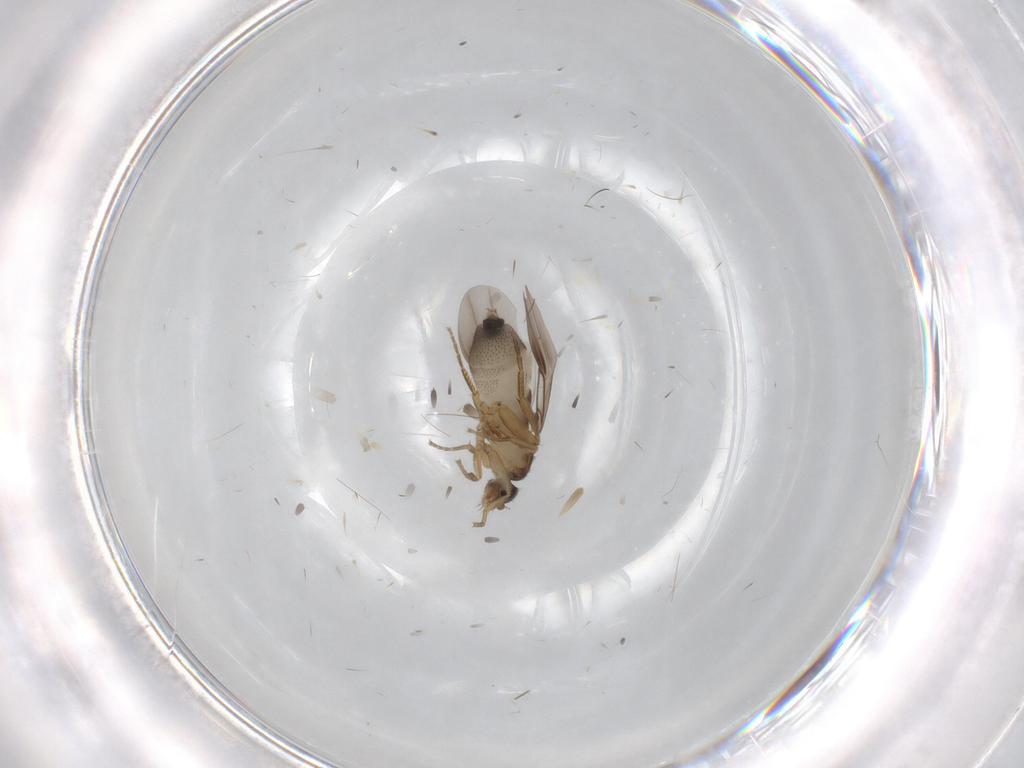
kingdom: Animalia
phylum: Arthropoda
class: Insecta
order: Diptera
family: Phoridae
